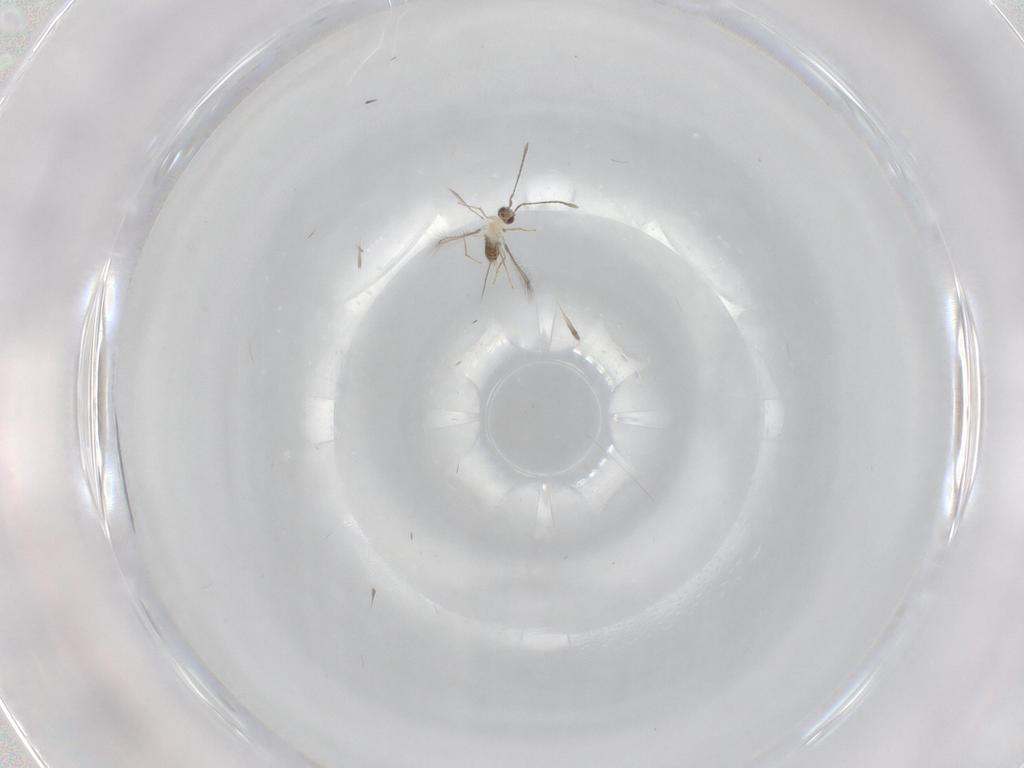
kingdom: Animalia
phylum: Arthropoda
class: Insecta
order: Hymenoptera
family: Mymaridae
